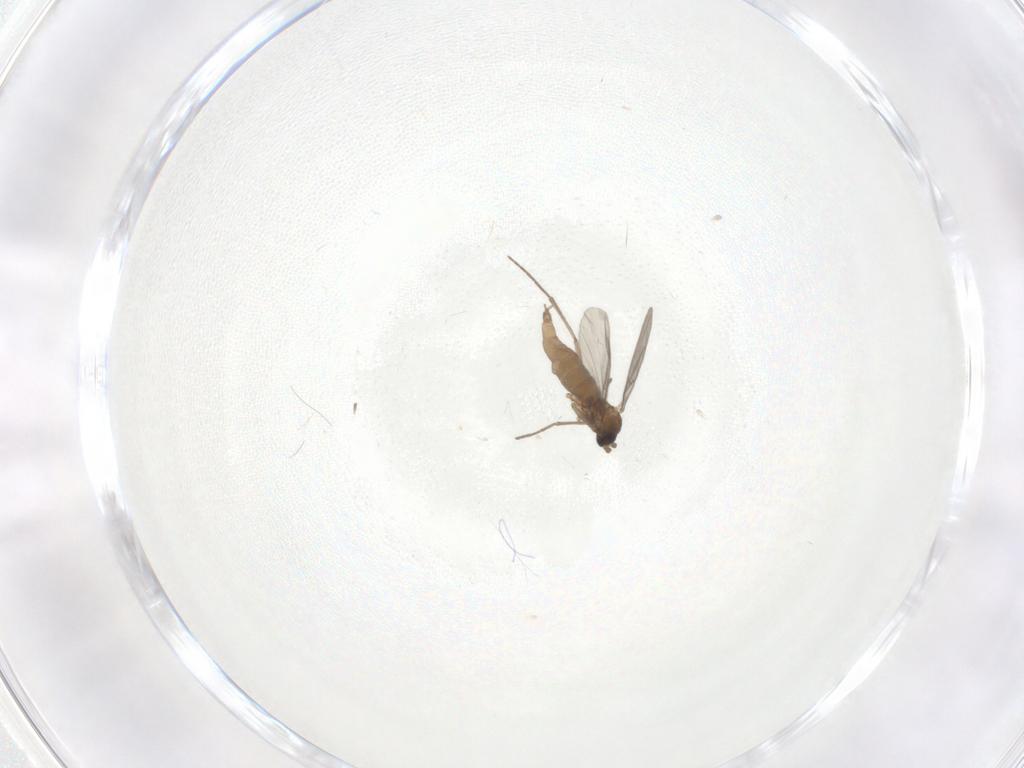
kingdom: Animalia
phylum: Arthropoda
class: Insecta
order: Diptera
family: Sciaridae
